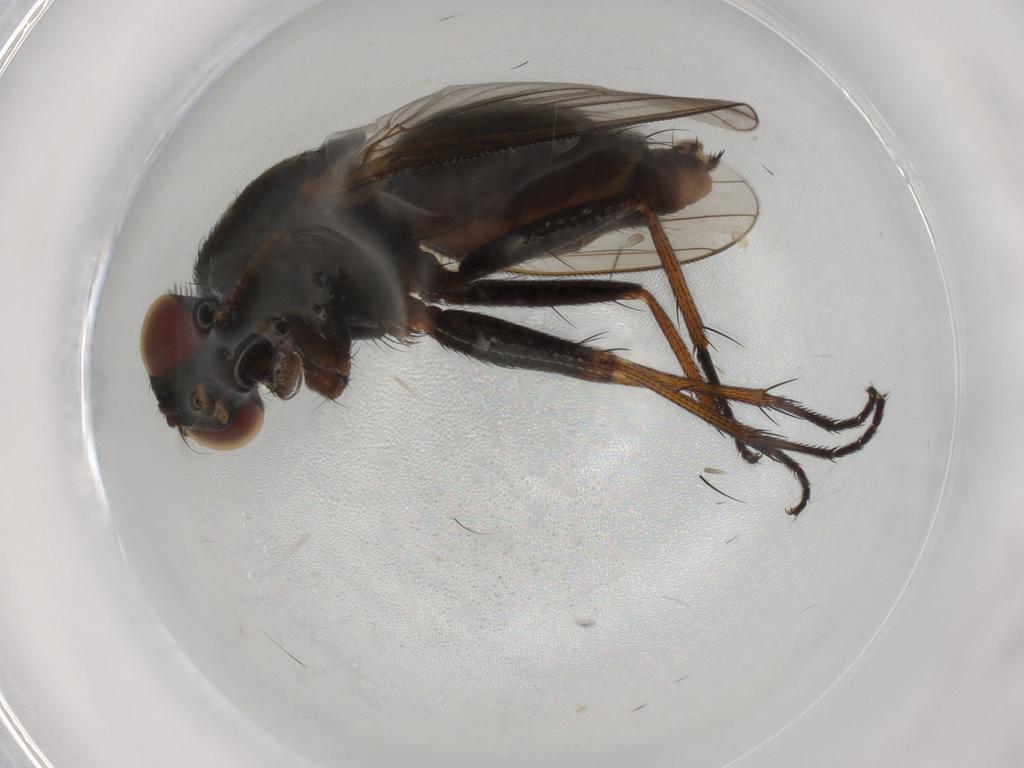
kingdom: Animalia
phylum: Arthropoda
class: Insecta
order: Diptera
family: Muscidae
